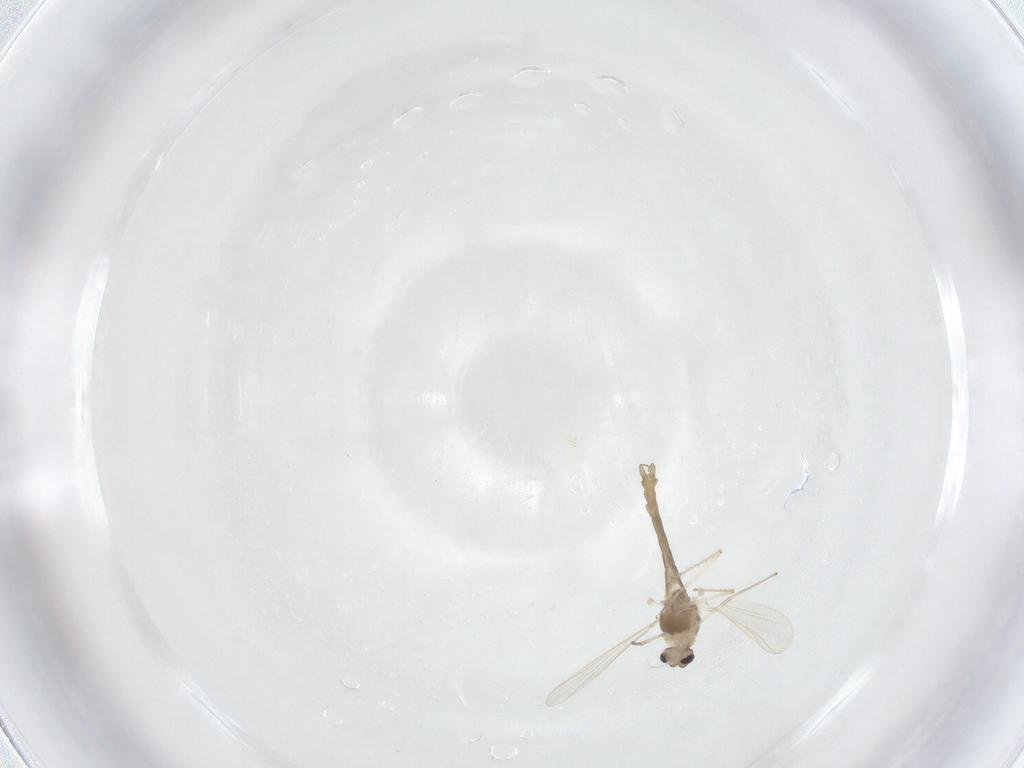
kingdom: Animalia
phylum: Arthropoda
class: Insecta
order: Diptera
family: Chironomidae
